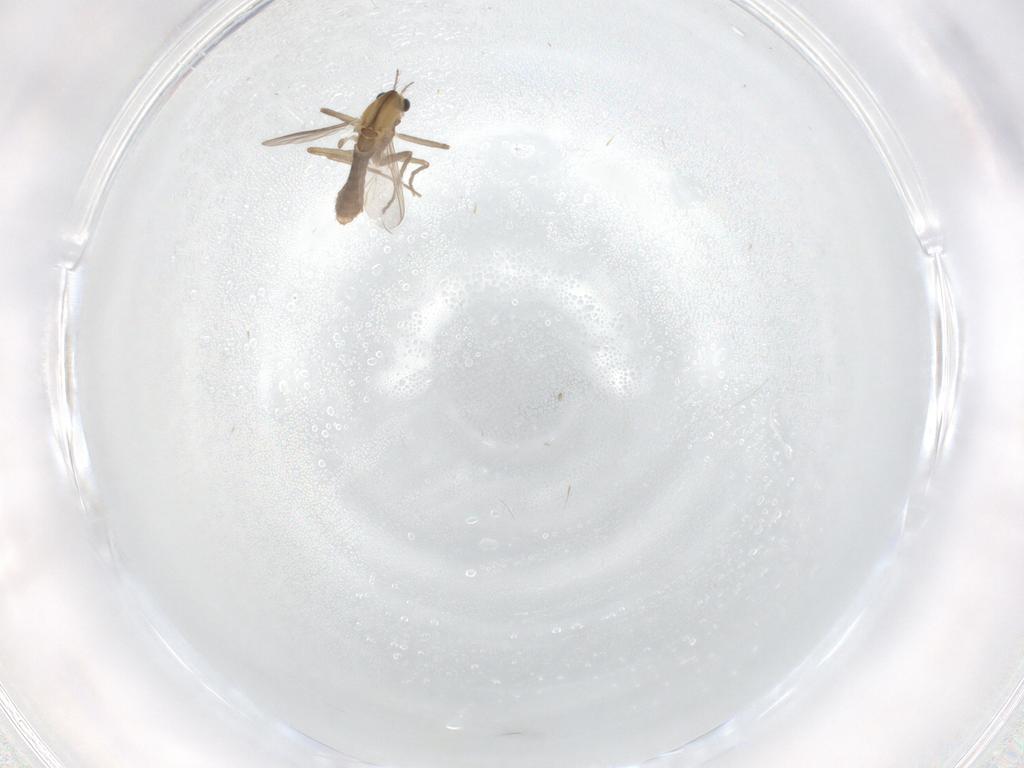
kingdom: Animalia
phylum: Arthropoda
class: Insecta
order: Diptera
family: Chironomidae
